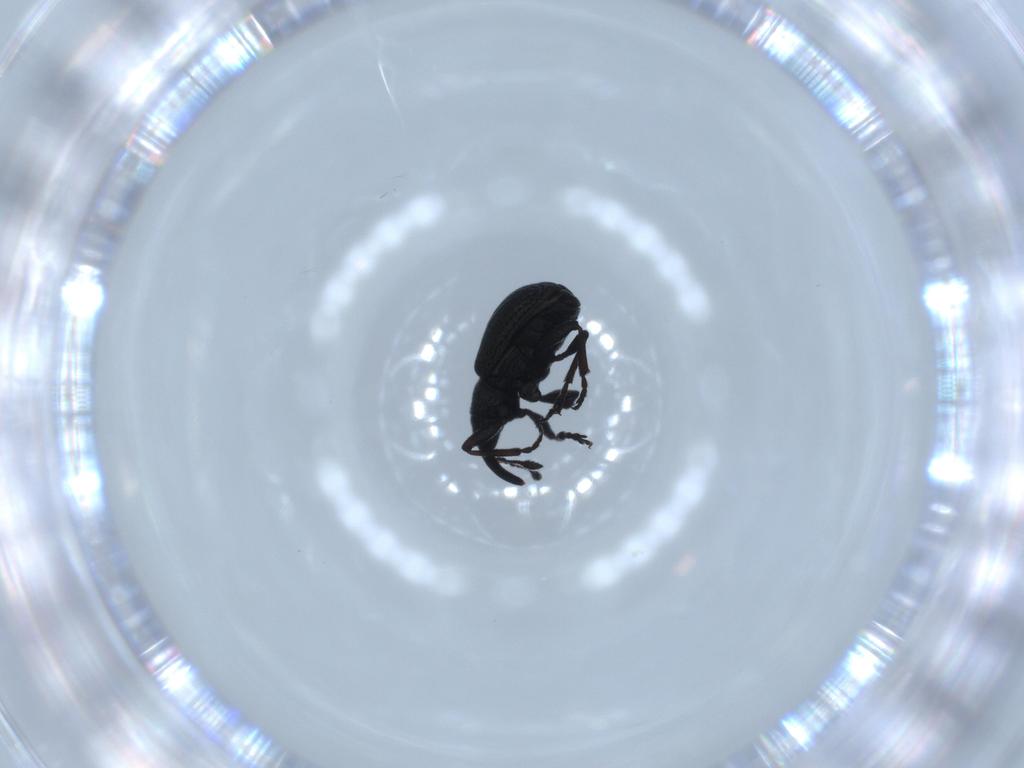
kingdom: Animalia
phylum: Arthropoda
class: Insecta
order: Coleoptera
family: Brentidae
